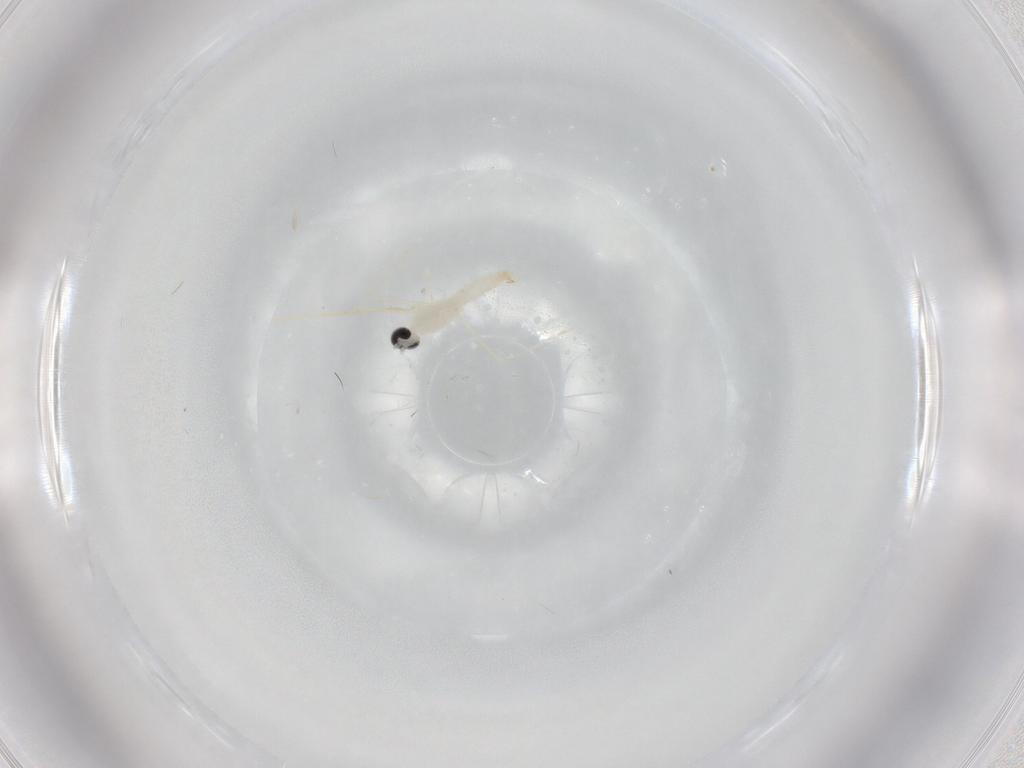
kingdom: Animalia
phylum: Arthropoda
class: Insecta
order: Diptera
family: Cecidomyiidae
